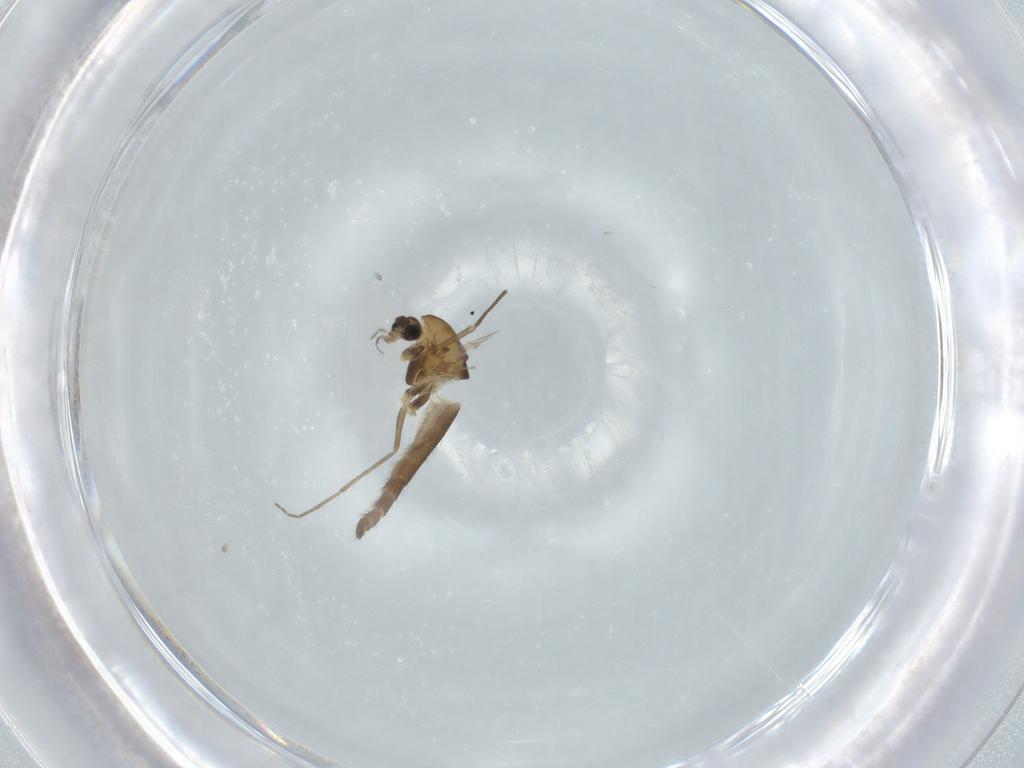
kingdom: Animalia
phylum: Arthropoda
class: Insecta
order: Diptera
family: Chironomidae
